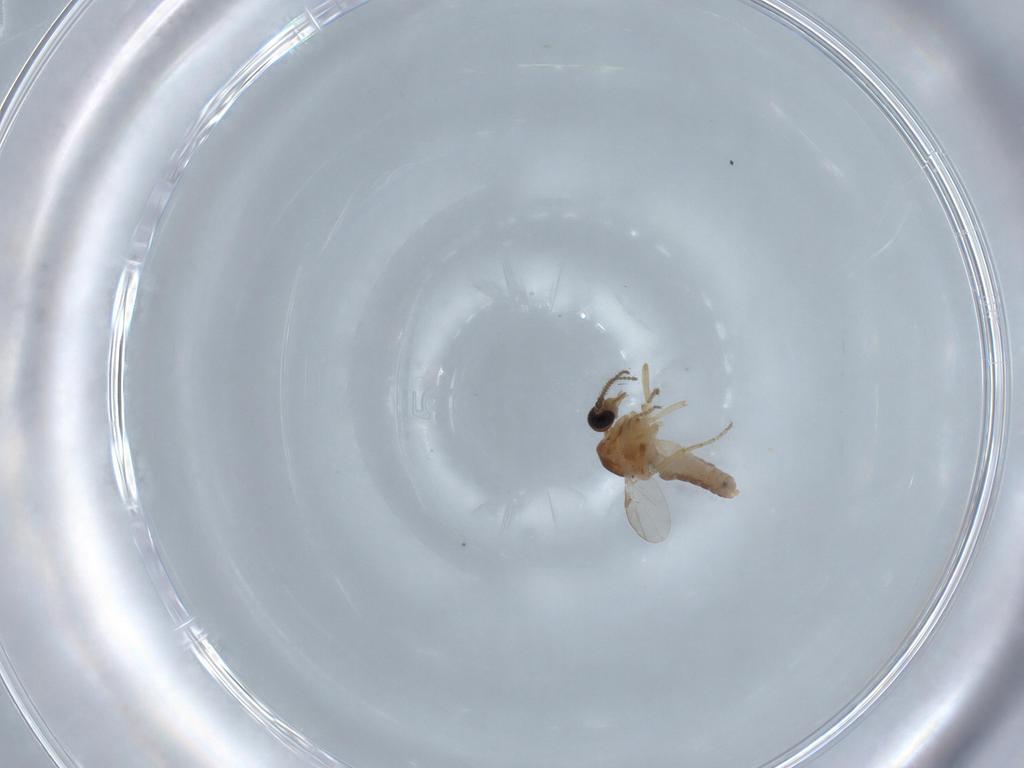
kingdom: Animalia
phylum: Arthropoda
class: Insecta
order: Diptera
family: Ceratopogonidae
